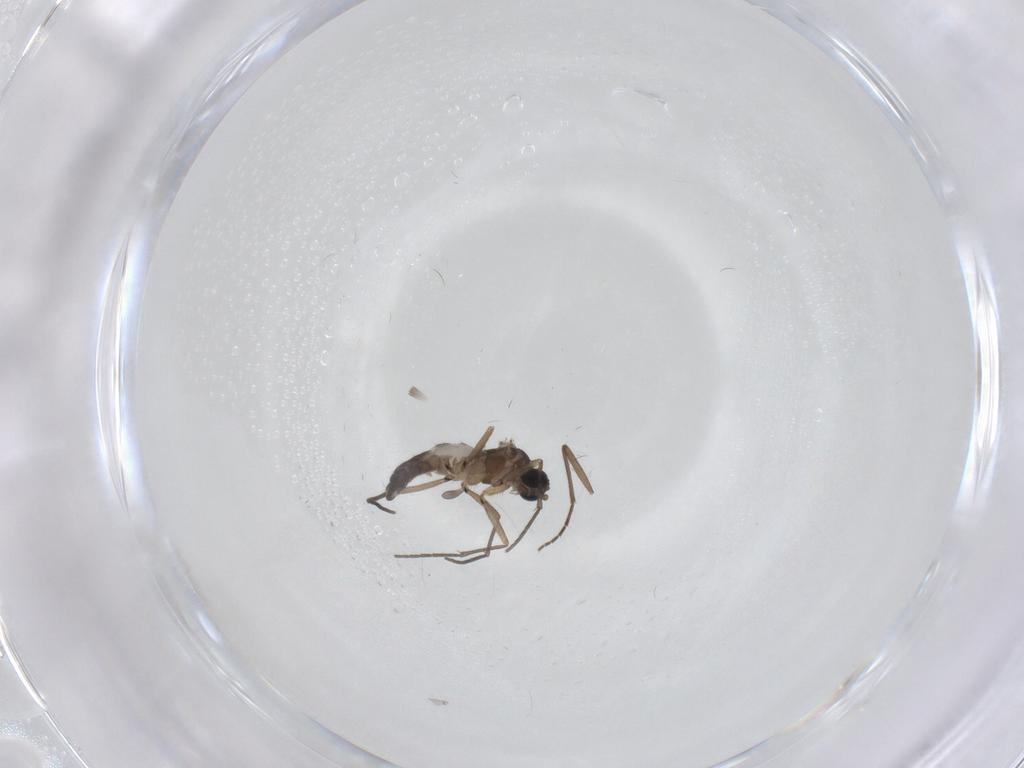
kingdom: Animalia
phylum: Arthropoda
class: Insecta
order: Diptera
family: Sciaridae
